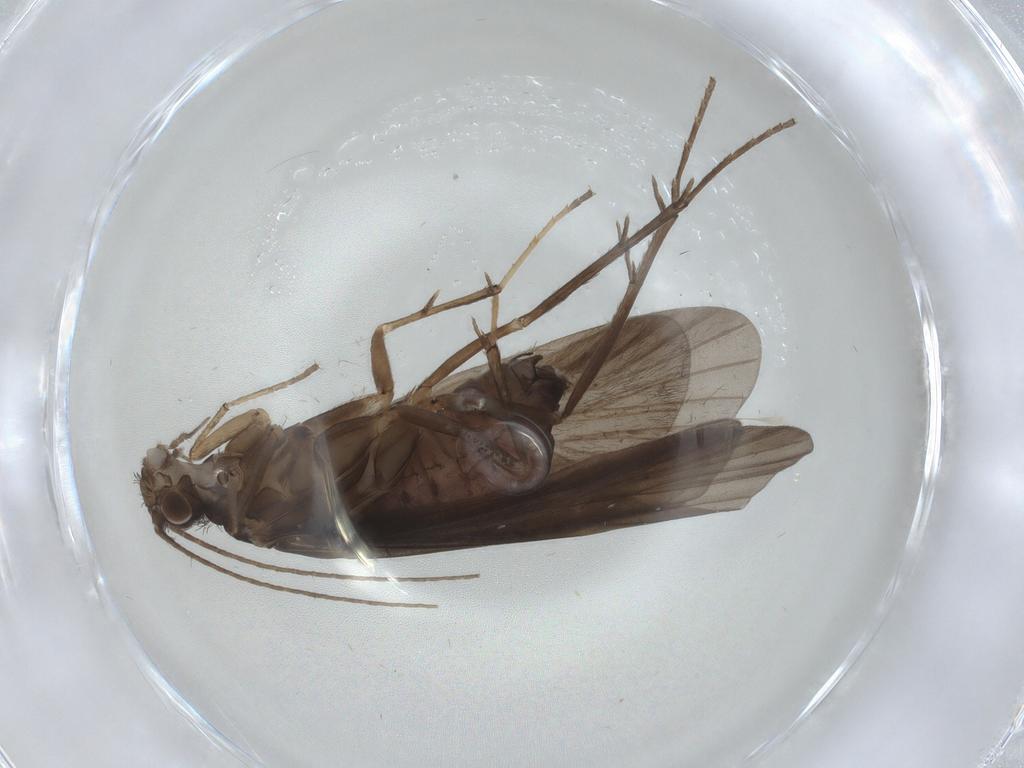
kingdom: Animalia
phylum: Arthropoda
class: Insecta
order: Trichoptera
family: Hydropsychidae
